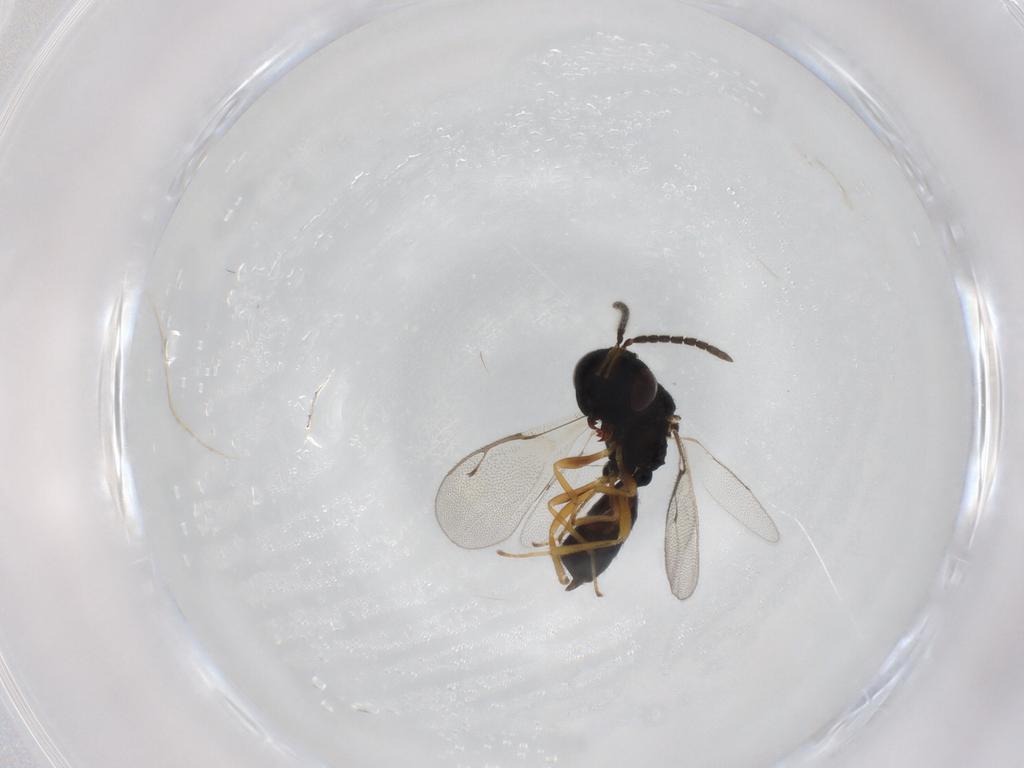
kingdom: Animalia
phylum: Arthropoda
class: Insecta
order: Hymenoptera
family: Pteromalidae
